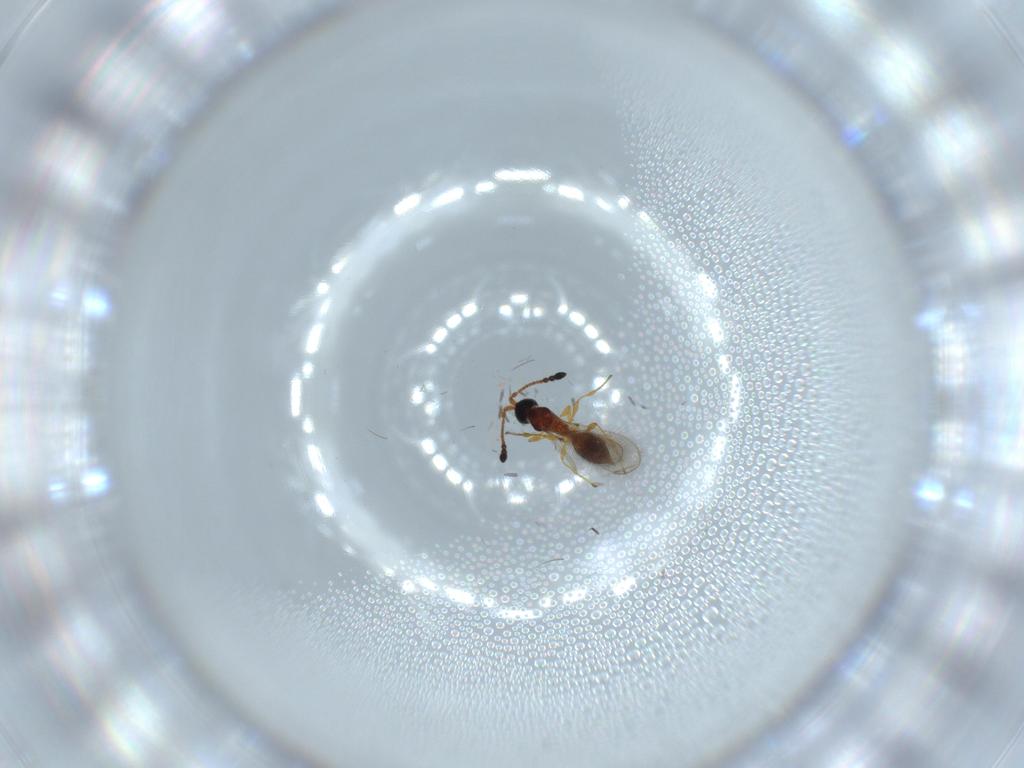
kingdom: Animalia
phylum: Arthropoda
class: Insecta
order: Hymenoptera
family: Diapriidae
